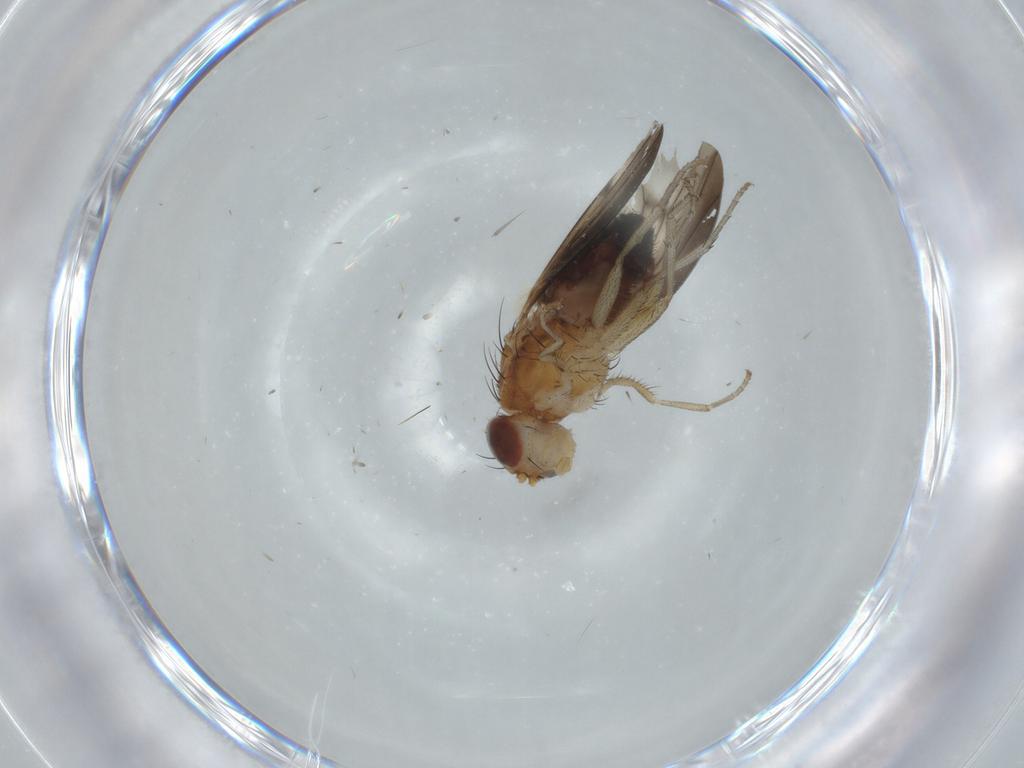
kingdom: Animalia
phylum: Arthropoda
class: Insecta
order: Diptera
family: Heleomyzidae
